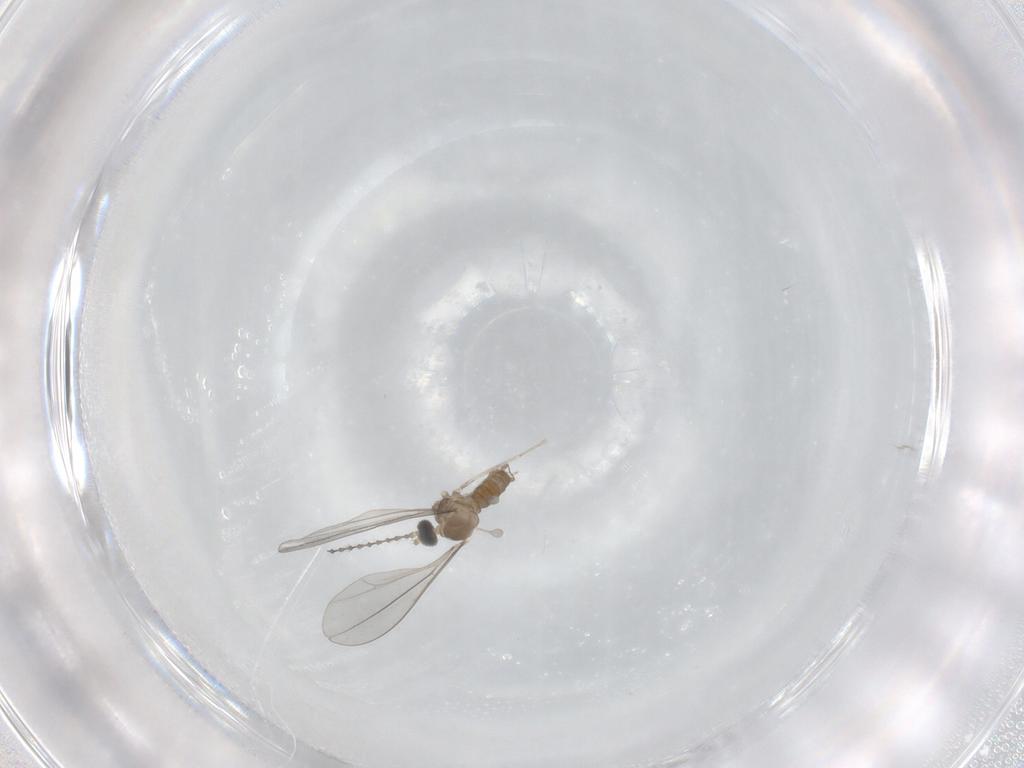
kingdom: Animalia
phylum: Arthropoda
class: Insecta
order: Diptera
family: Cecidomyiidae
